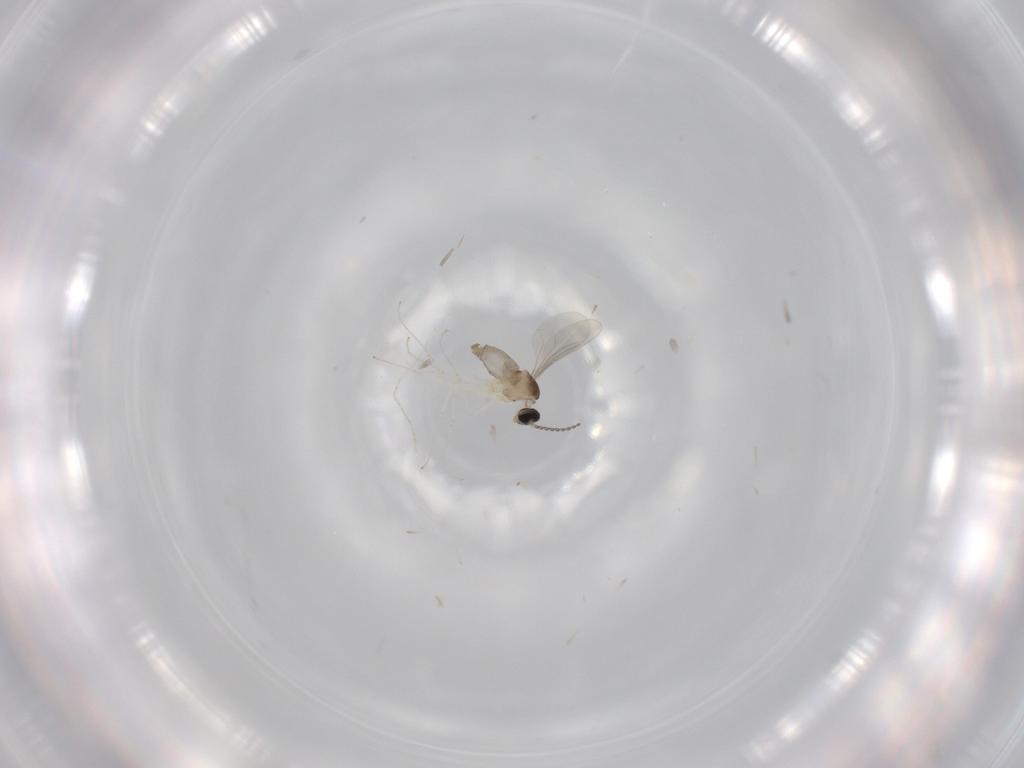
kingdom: Animalia
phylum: Arthropoda
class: Insecta
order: Diptera
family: Cecidomyiidae
